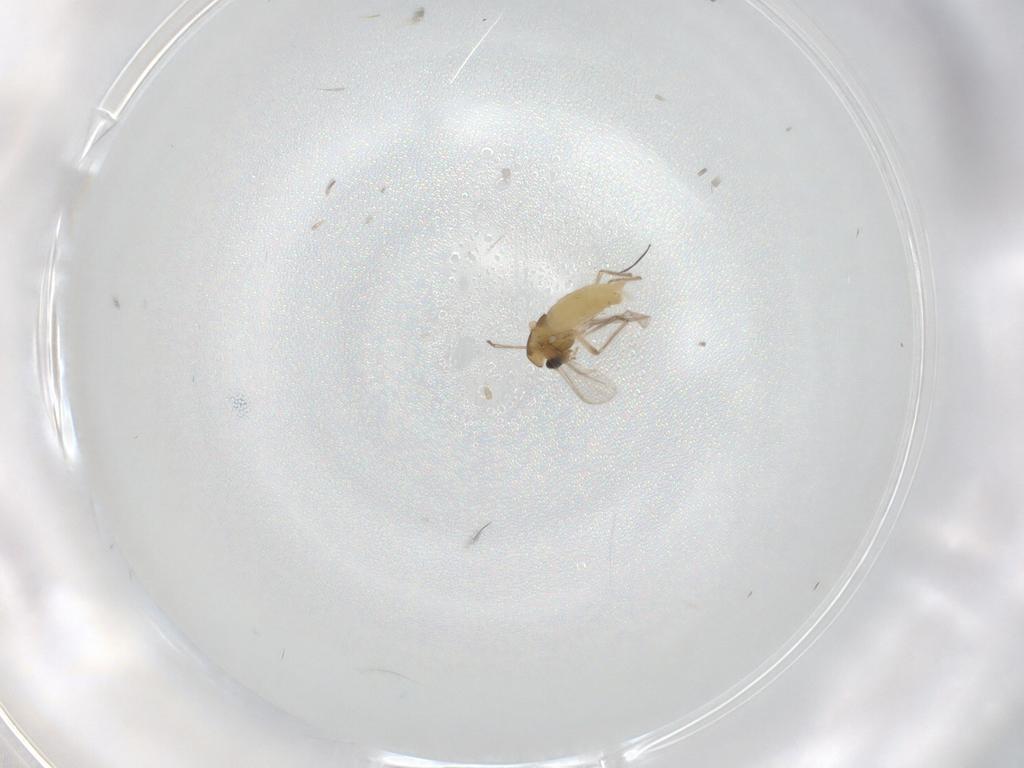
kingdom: Animalia
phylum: Arthropoda
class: Insecta
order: Diptera
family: Chironomidae
